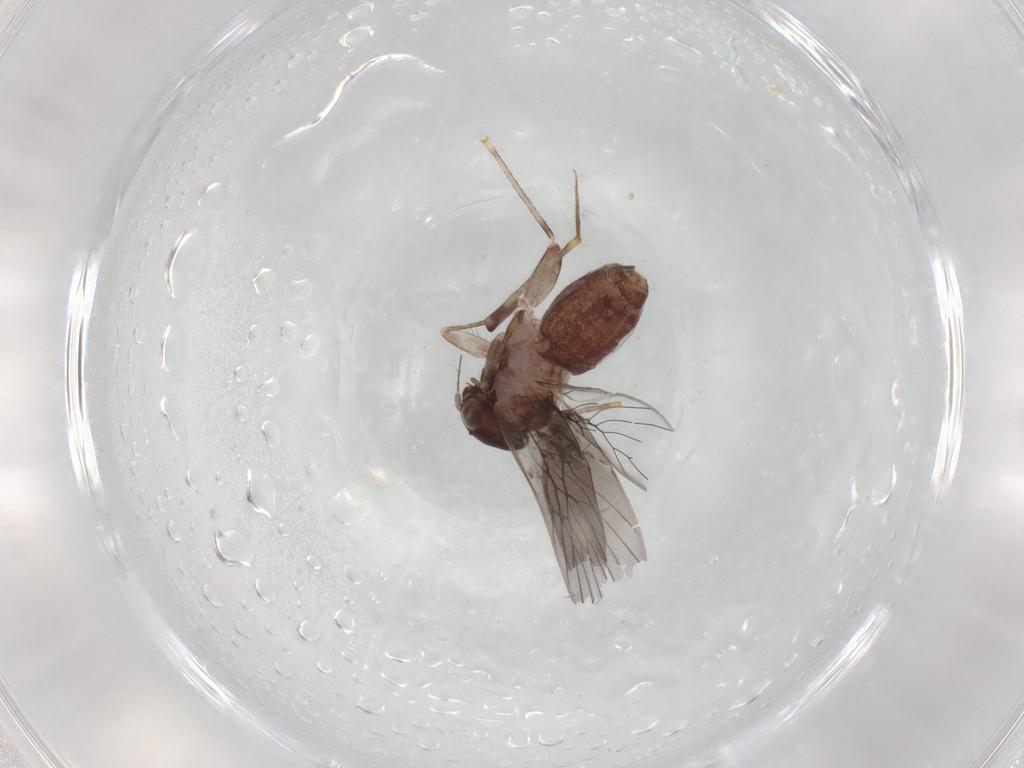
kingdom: Animalia
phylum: Arthropoda
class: Insecta
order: Psocodea
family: Lepidopsocidae
